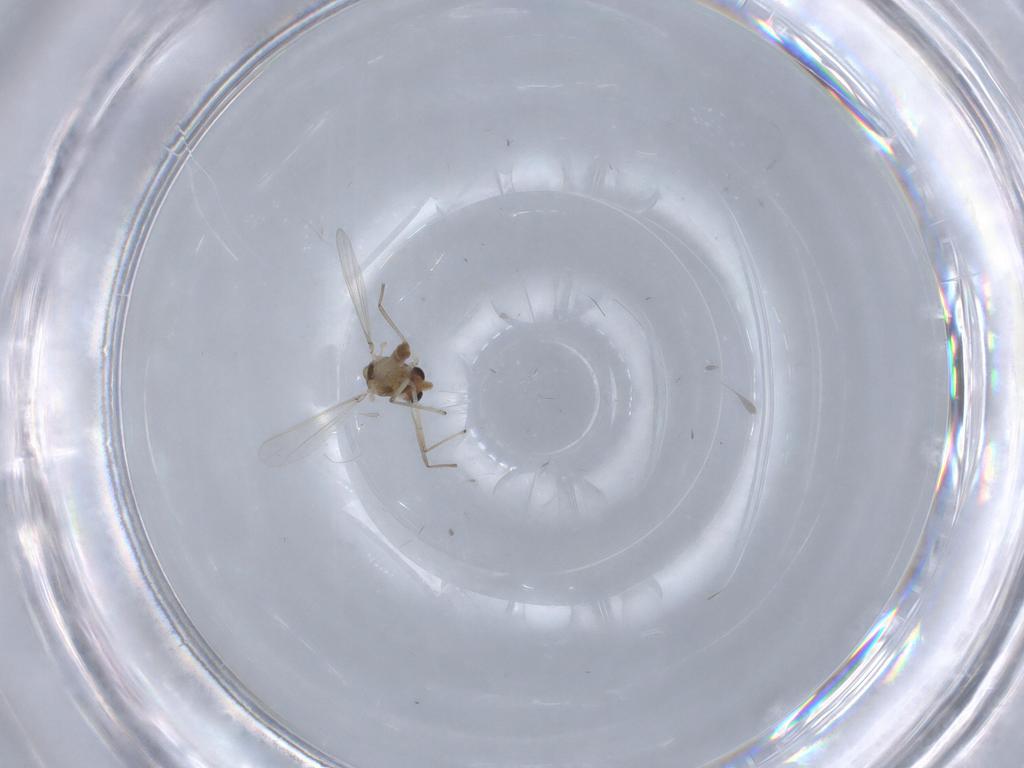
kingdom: Animalia
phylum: Arthropoda
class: Insecta
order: Diptera
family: Chironomidae
